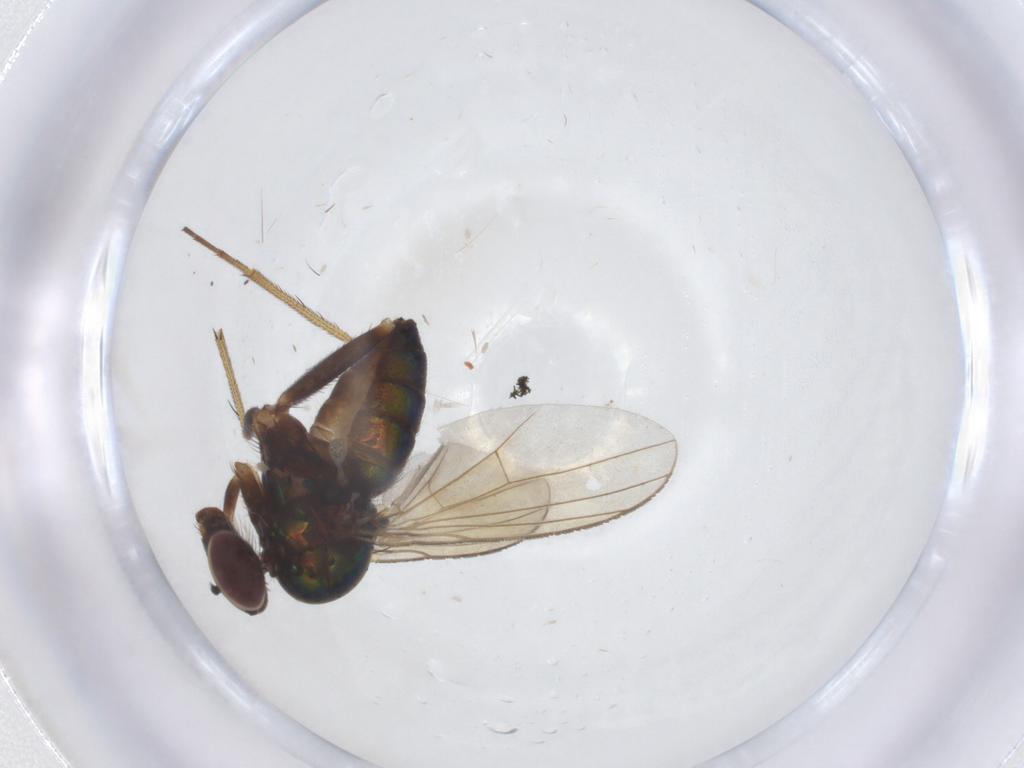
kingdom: Animalia
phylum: Arthropoda
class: Insecta
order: Diptera
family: Dolichopodidae
